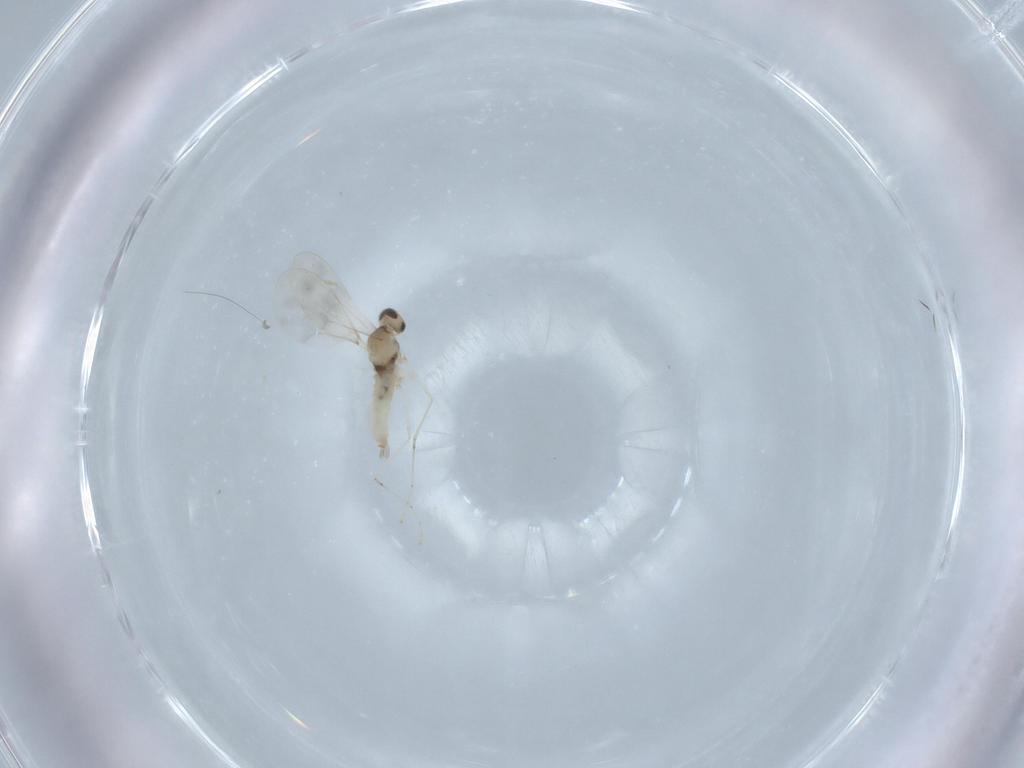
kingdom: Animalia
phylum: Arthropoda
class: Insecta
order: Diptera
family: Cecidomyiidae
